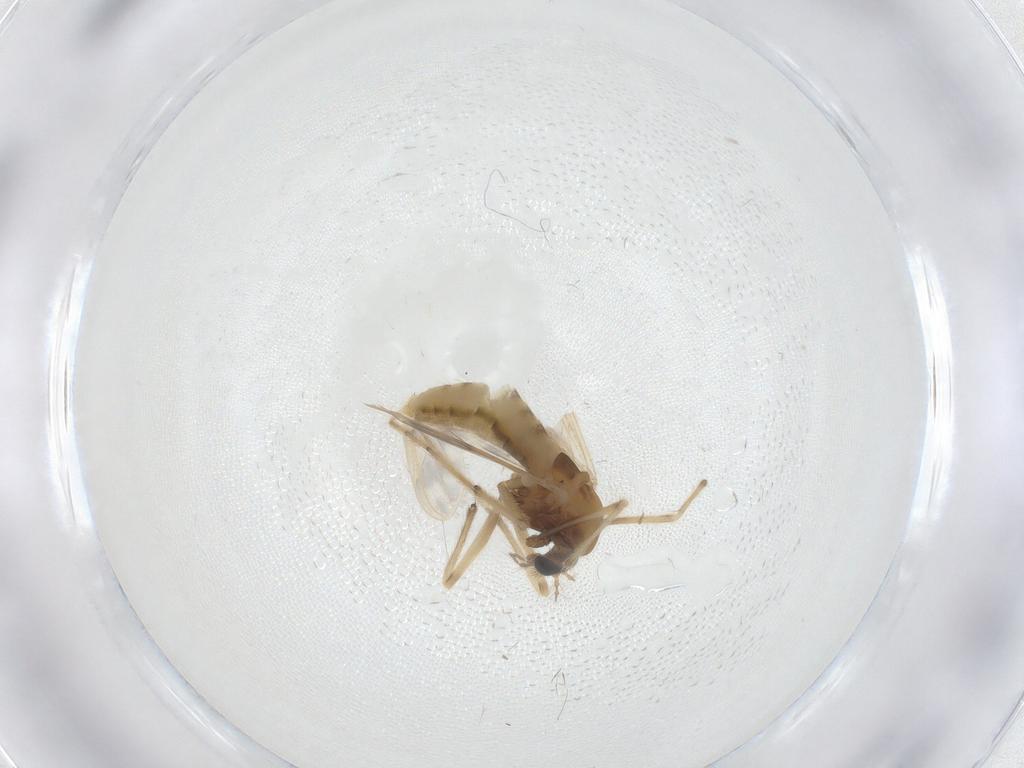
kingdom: Animalia
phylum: Arthropoda
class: Insecta
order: Diptera
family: Chironomidae
